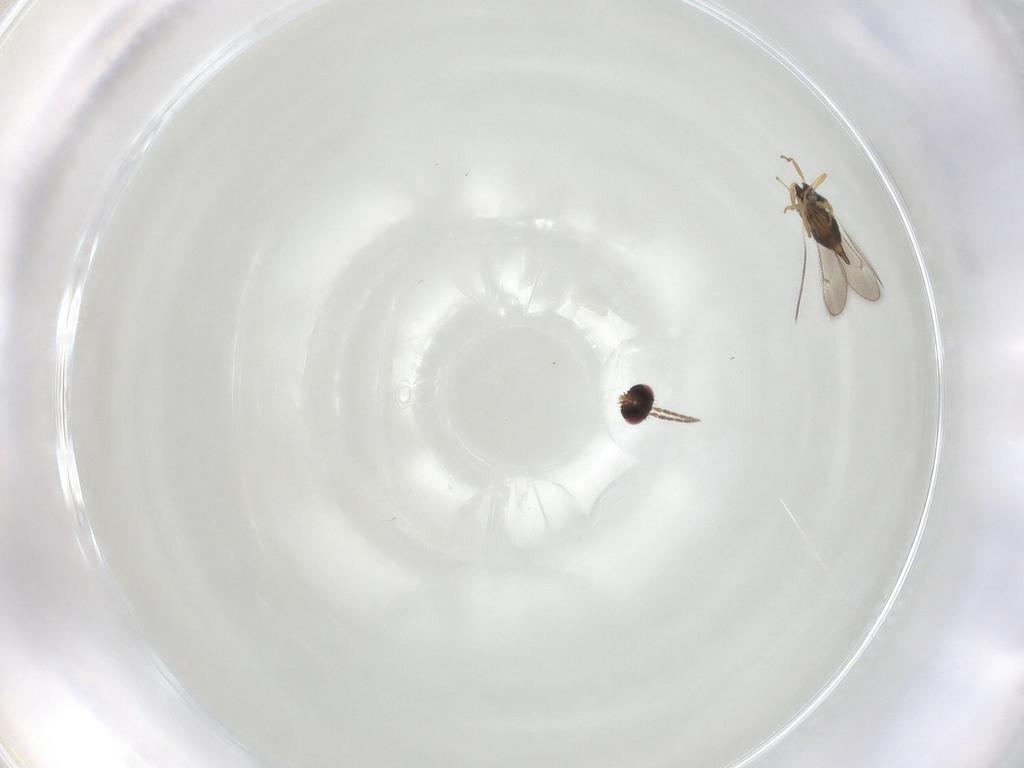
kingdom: Animalia
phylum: Arthropoda
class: Insecta
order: Hymenoptera
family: Eulophidae
